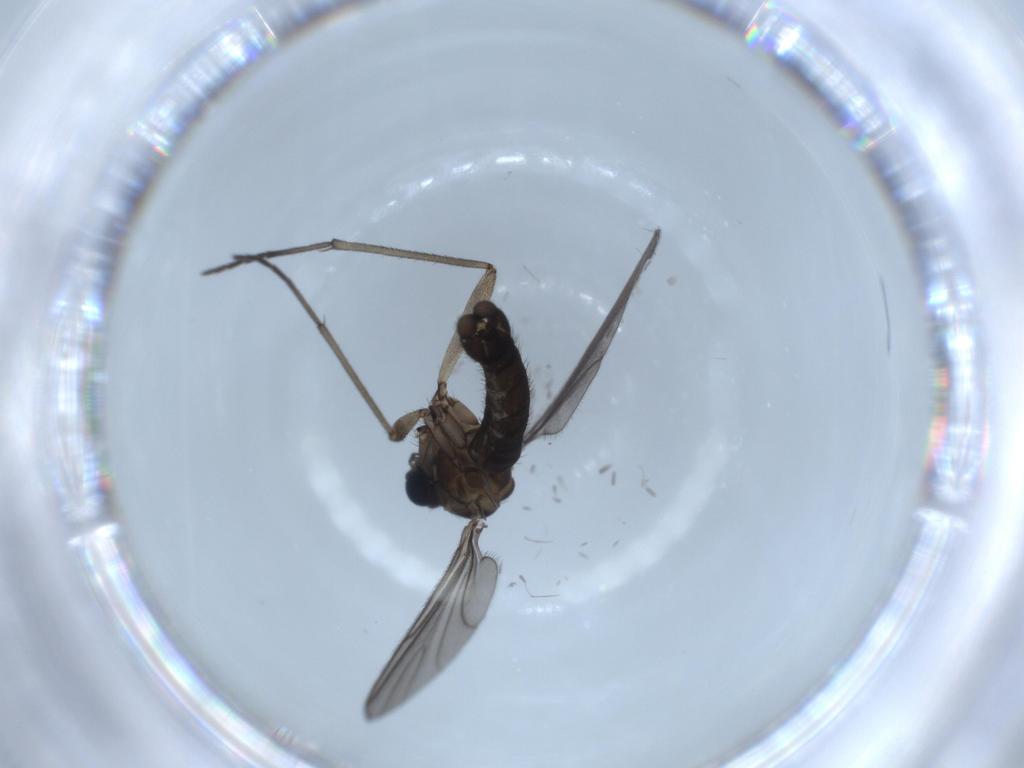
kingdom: Animalia
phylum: Arthropoda
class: Insecta
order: Diptera
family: Sciaridae
